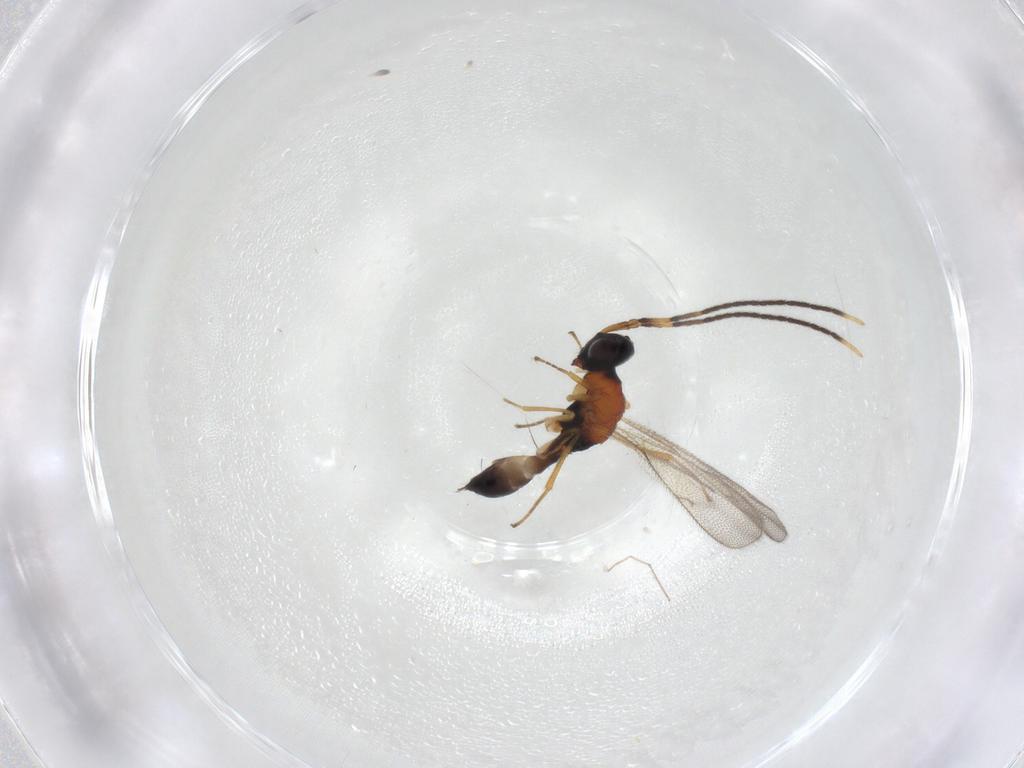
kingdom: Animalia
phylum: Arthropoda
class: Insecta
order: Hymenoptera
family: Pteromalidae
